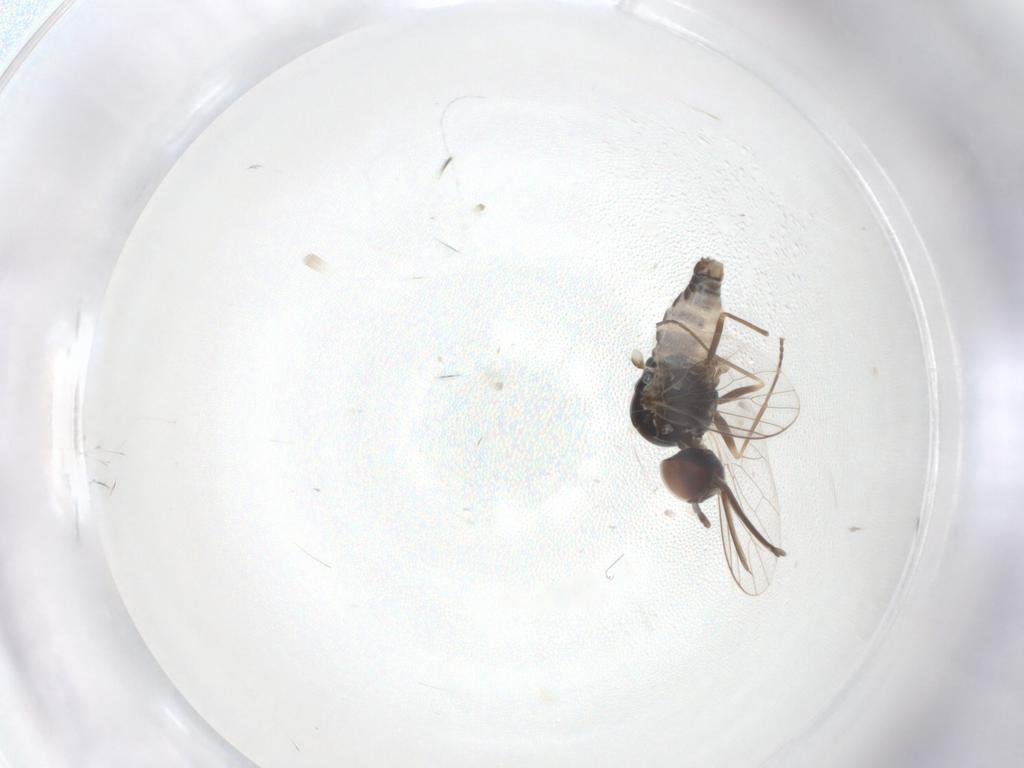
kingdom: Animalia
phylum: Arthropoda
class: Insecta
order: Diptera
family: Bombyliidae
